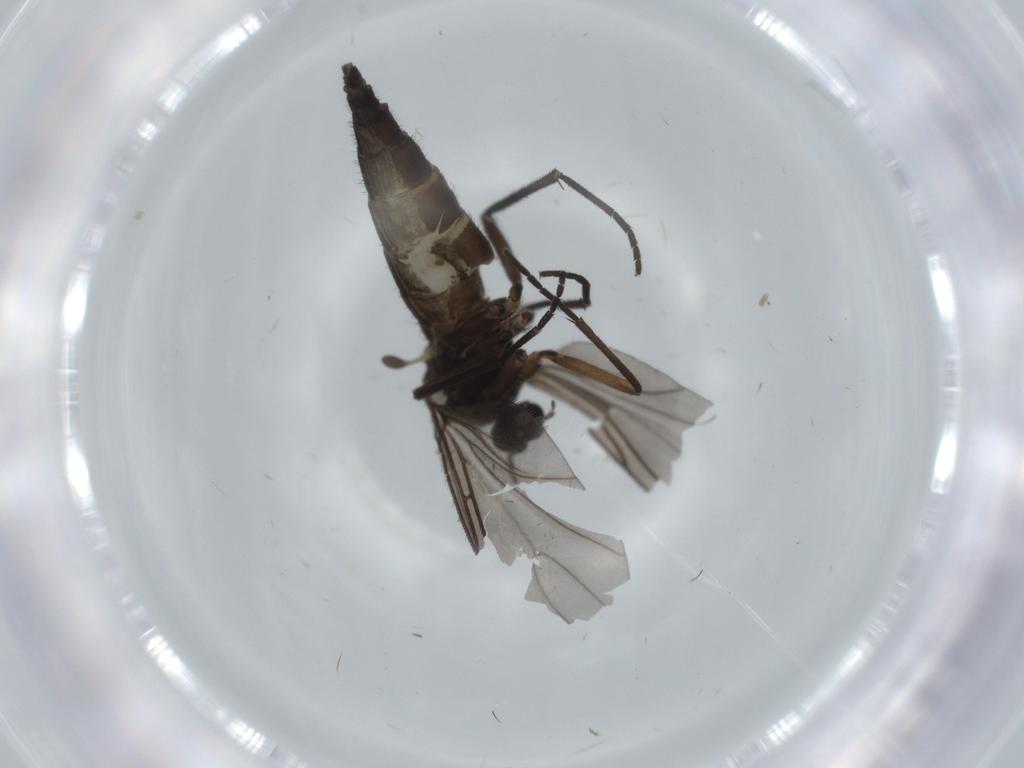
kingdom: Animalia
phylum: Arthropoda
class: Insecta
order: Diptera
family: Sciaridae
